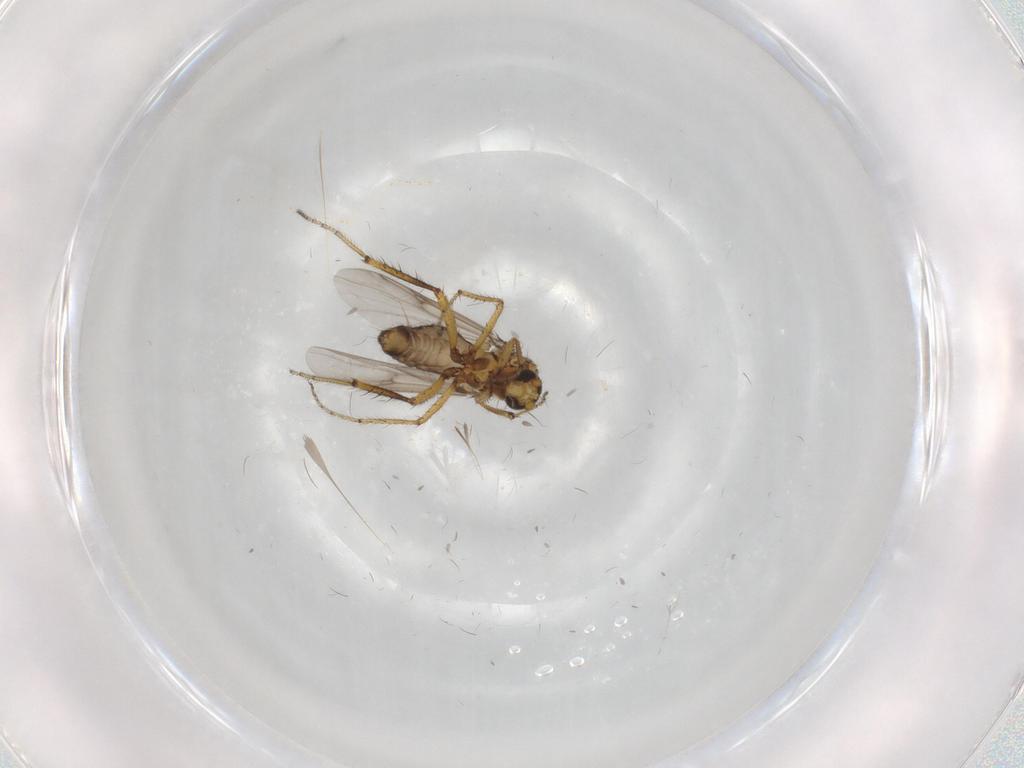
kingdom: Animalia
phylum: Arthropoda
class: Insecta
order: Diptera
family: Ceratopogonidae
